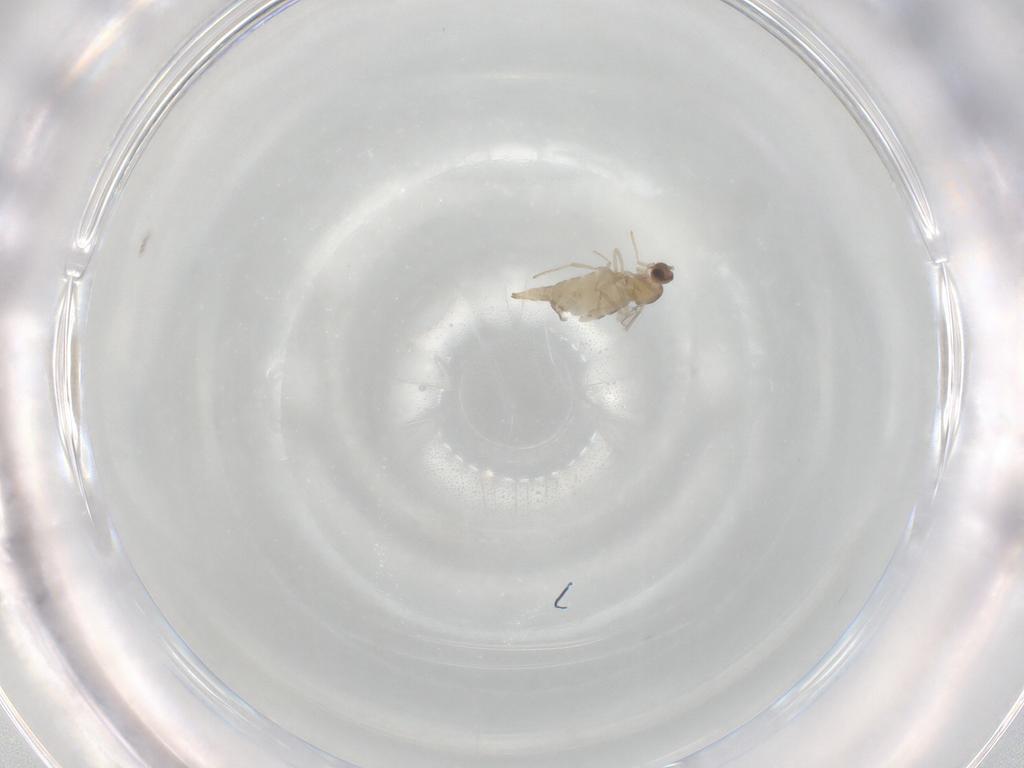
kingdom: Animalia
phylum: Arthropoda
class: Insecta
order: Diptera
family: Cecidomyiidae
